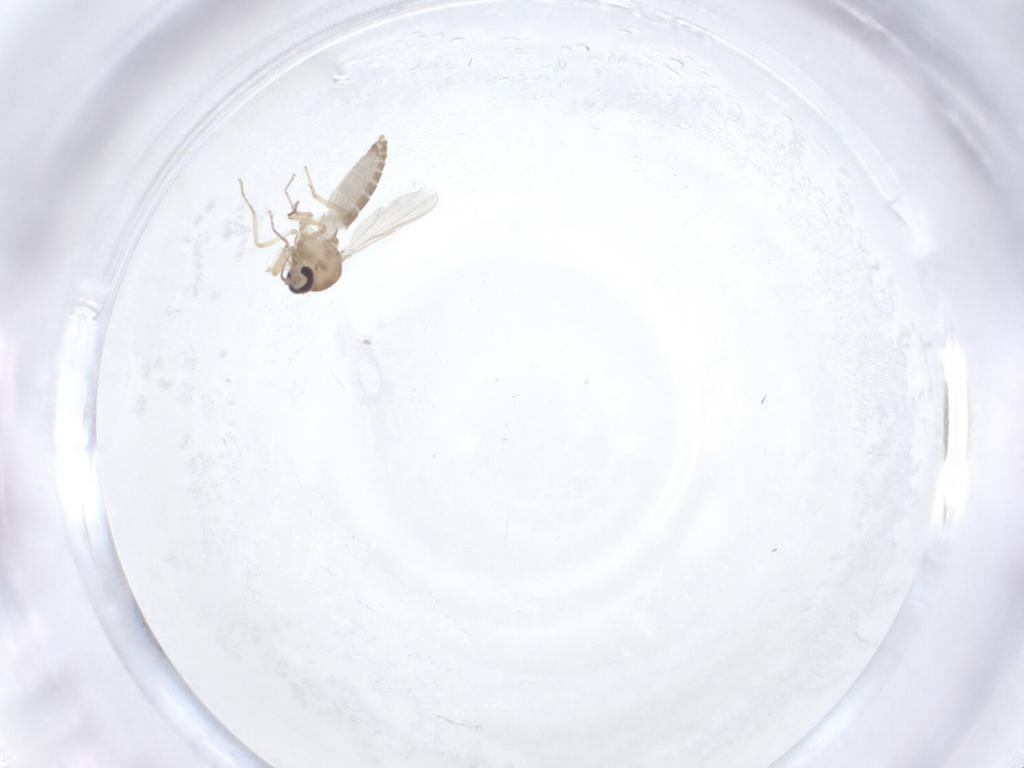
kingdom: Animalia
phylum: Arthropoda
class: Insecta
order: Diptera
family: Ceratopogonidae
